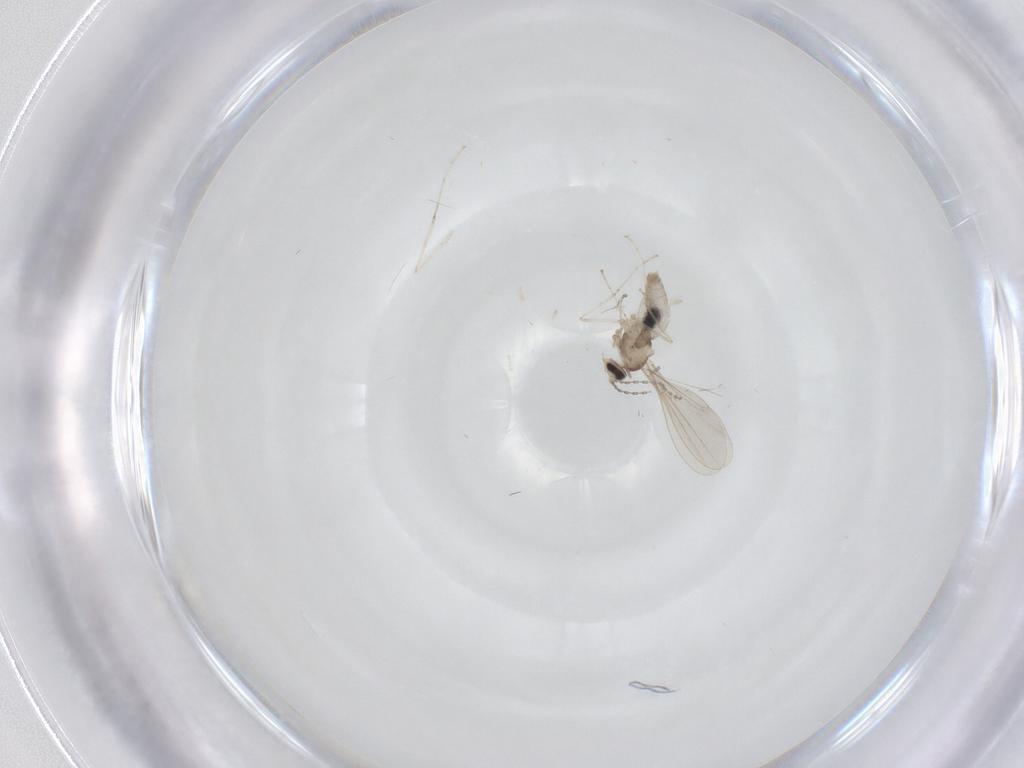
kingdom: Animalia
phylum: Arthropoda
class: Insecta
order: Diptera
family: Cecidomyiidae
